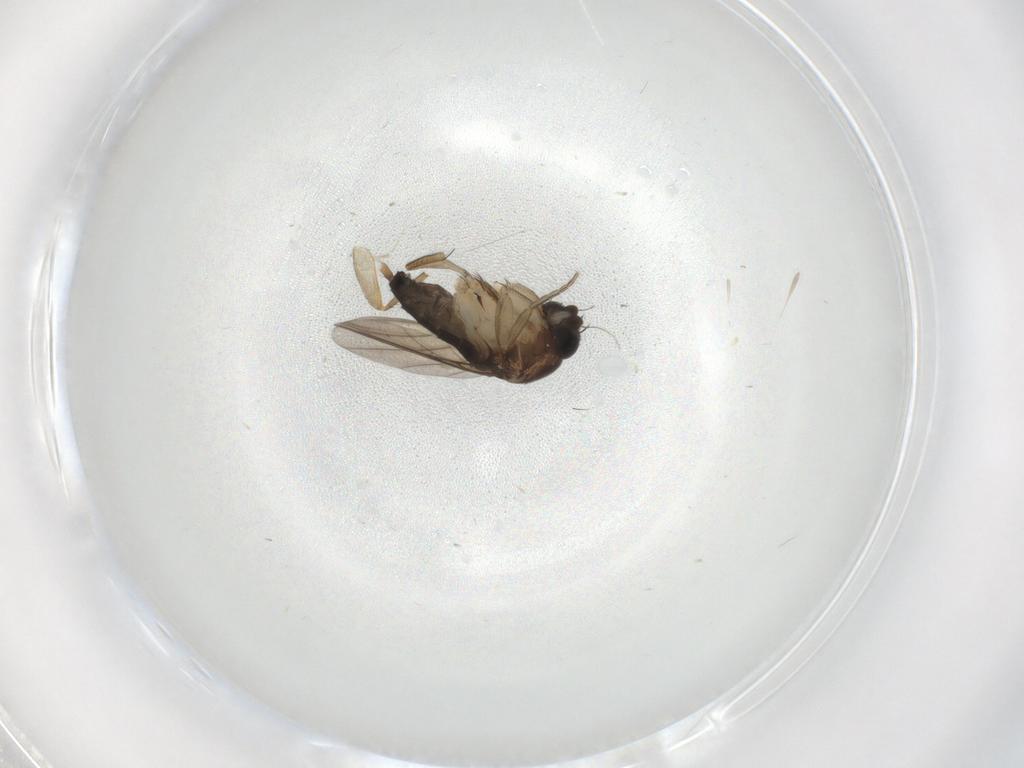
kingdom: Animalia
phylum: Arthropoda
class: Insecta
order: Diptera
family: Phoridae
